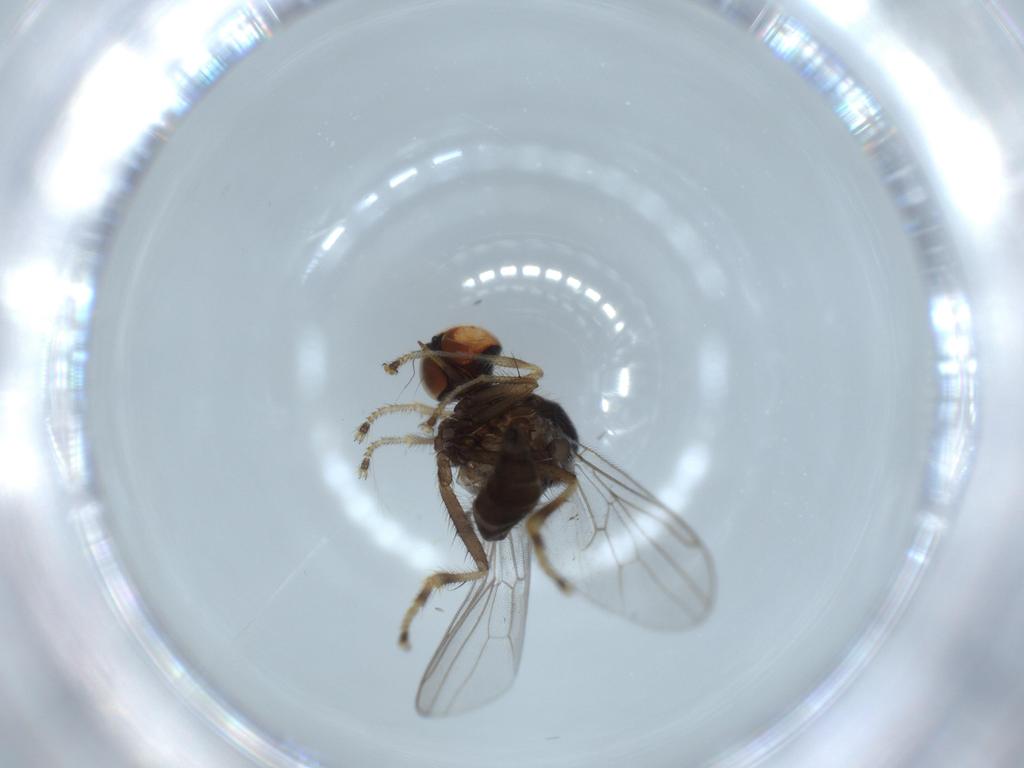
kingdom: Animalia
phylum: Arthropoda
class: Insecta
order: Diptera
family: Hybotidae
